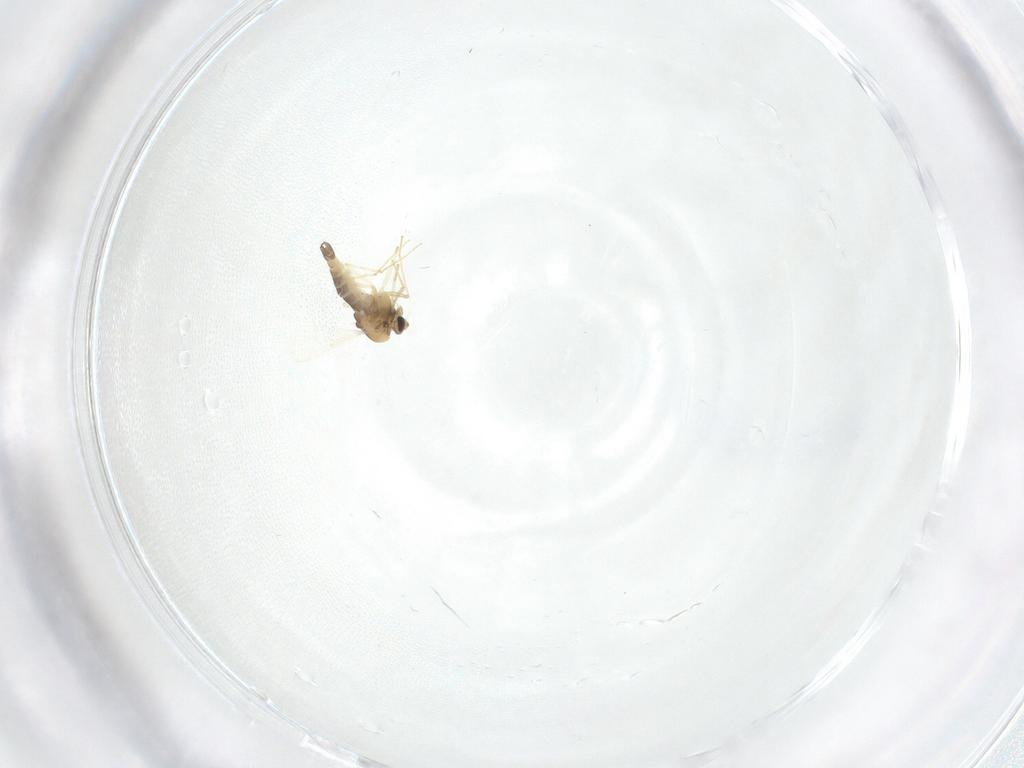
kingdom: Animalia
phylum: Arthropoda
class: Insecta
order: Diptera
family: Chironomidae
